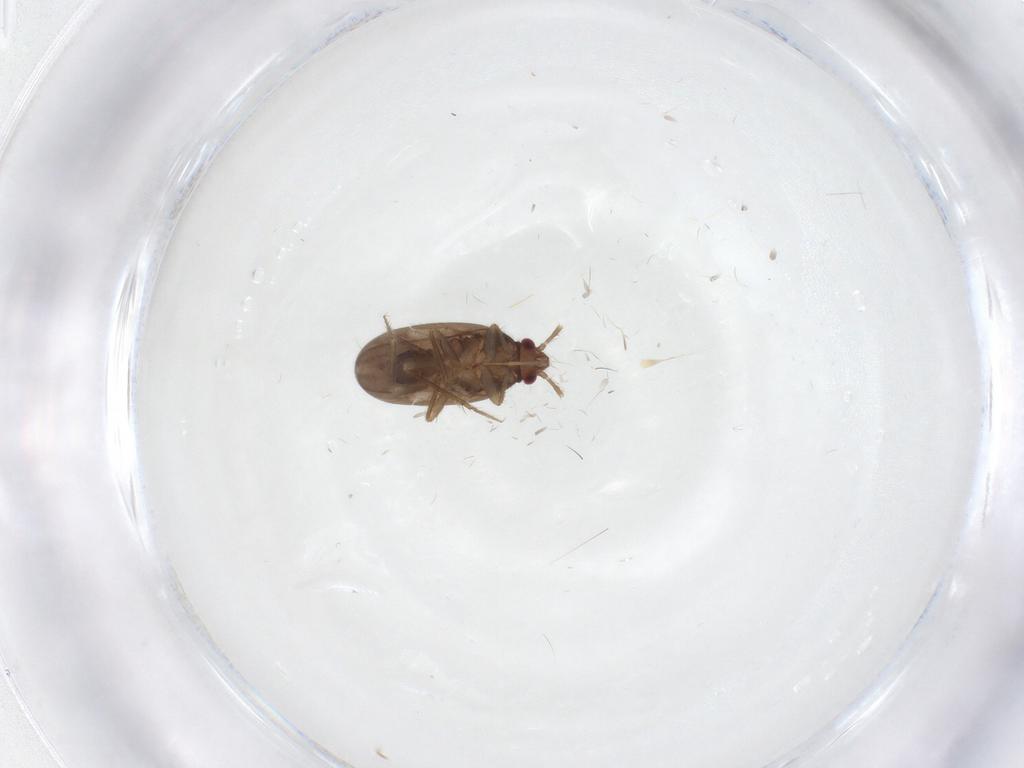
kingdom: Animalia
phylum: Arthropoda
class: Insecta
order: Hemiptera
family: Cercopidae
